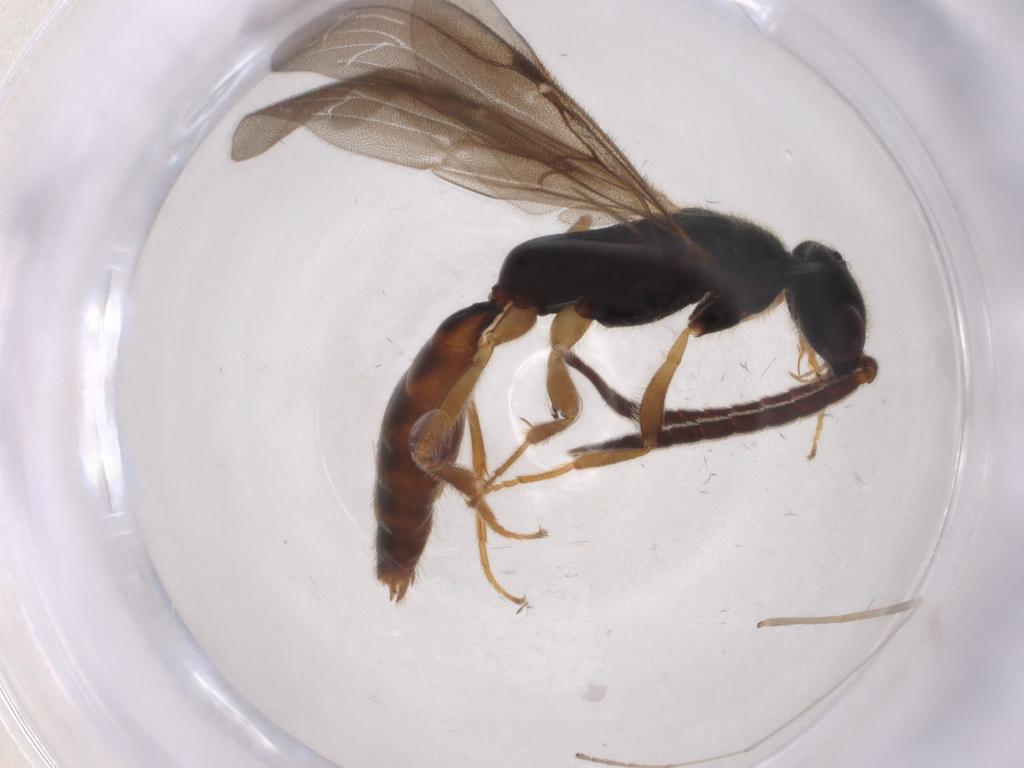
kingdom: Animalia
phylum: Arthropoda
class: Insecta
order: Hymenoptera
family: Bethylidae
